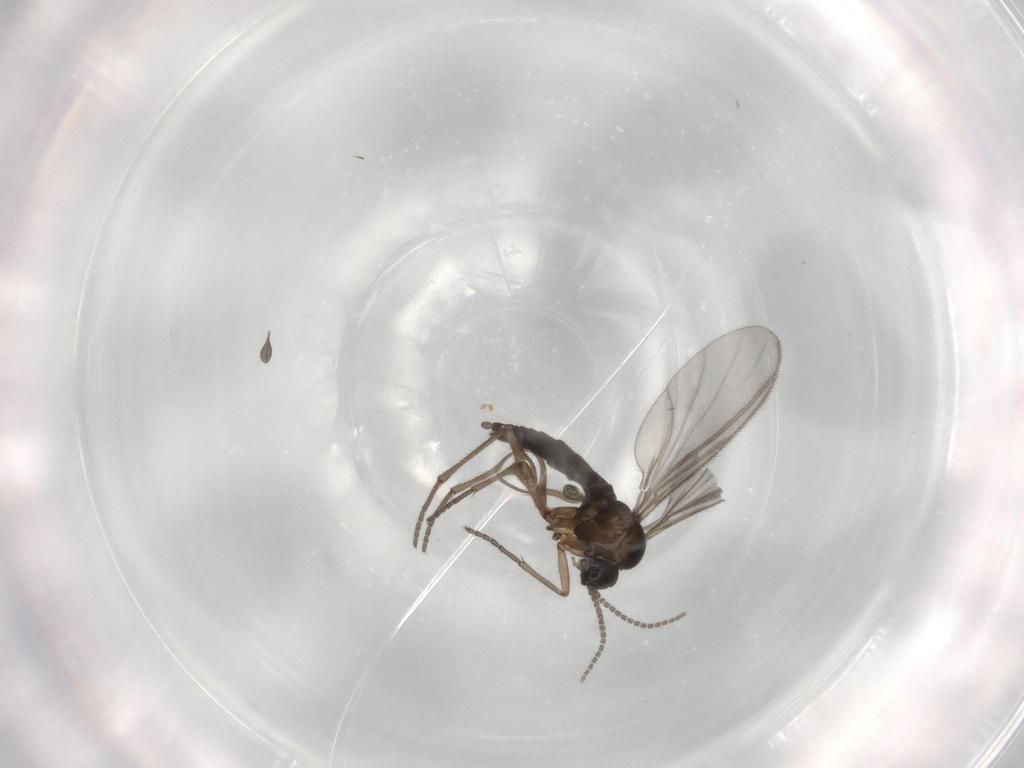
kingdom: Animalia
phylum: Arthropoda
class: Insecta
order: Diptera
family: Sciaridae
